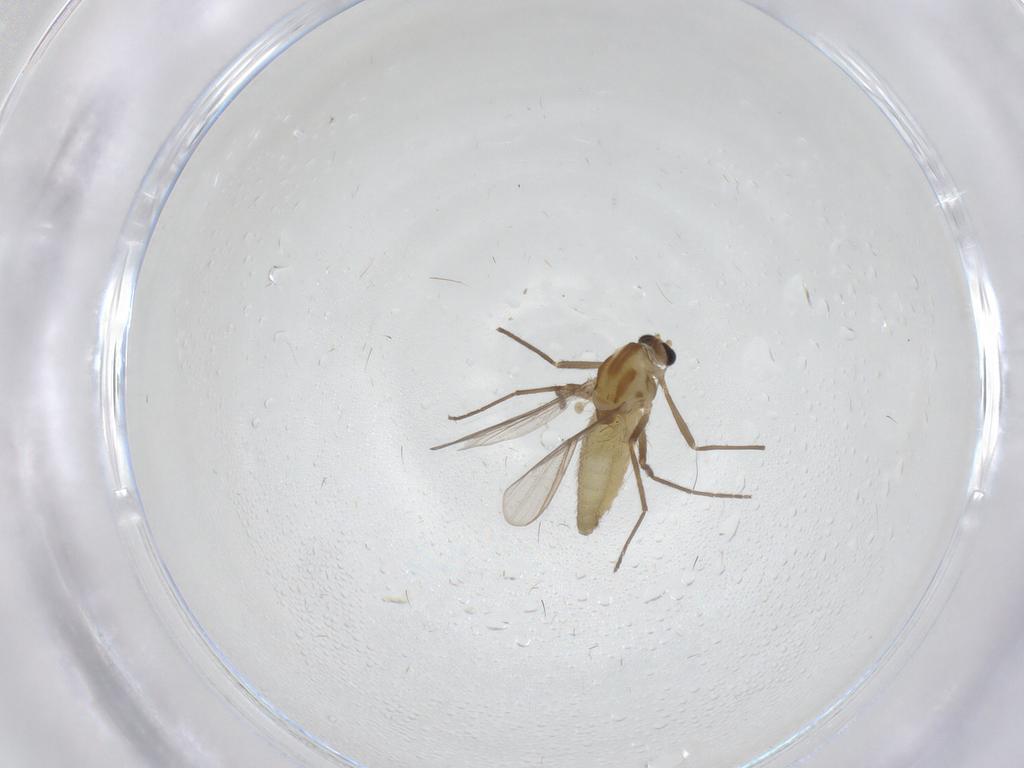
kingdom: Animalia
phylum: Arthropoda
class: Insecta
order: Diptera
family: Chironomidae
